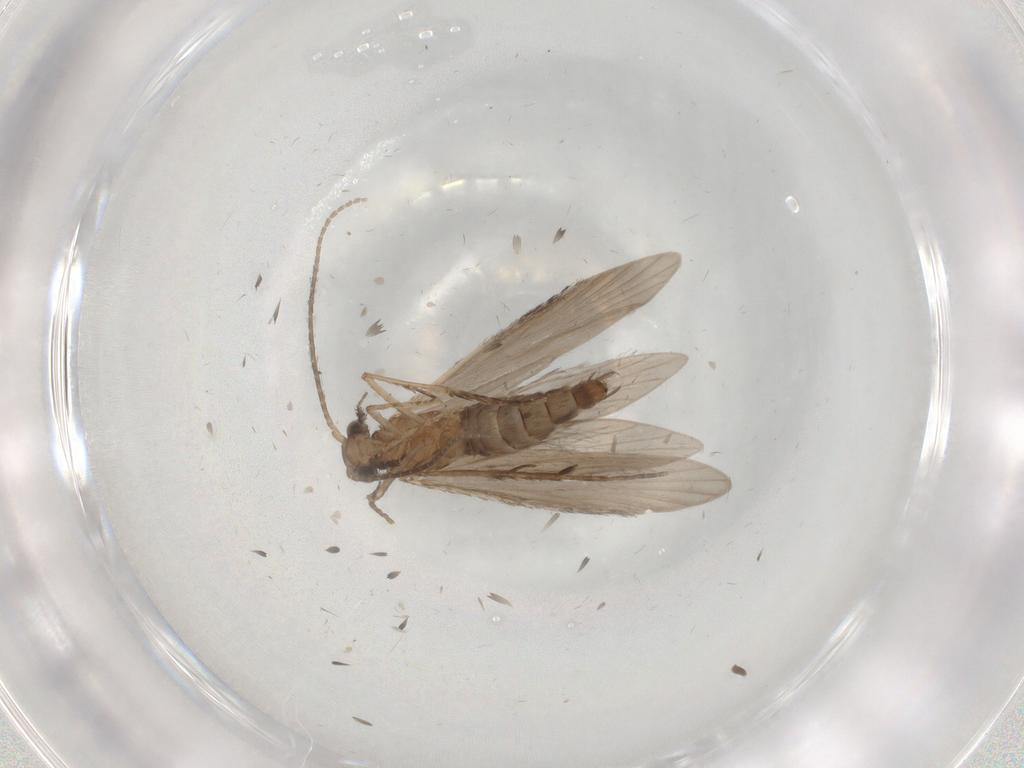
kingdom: Animalia
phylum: Arthropoda
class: Insecta
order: Trichoptera
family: Xiphocentronidae
